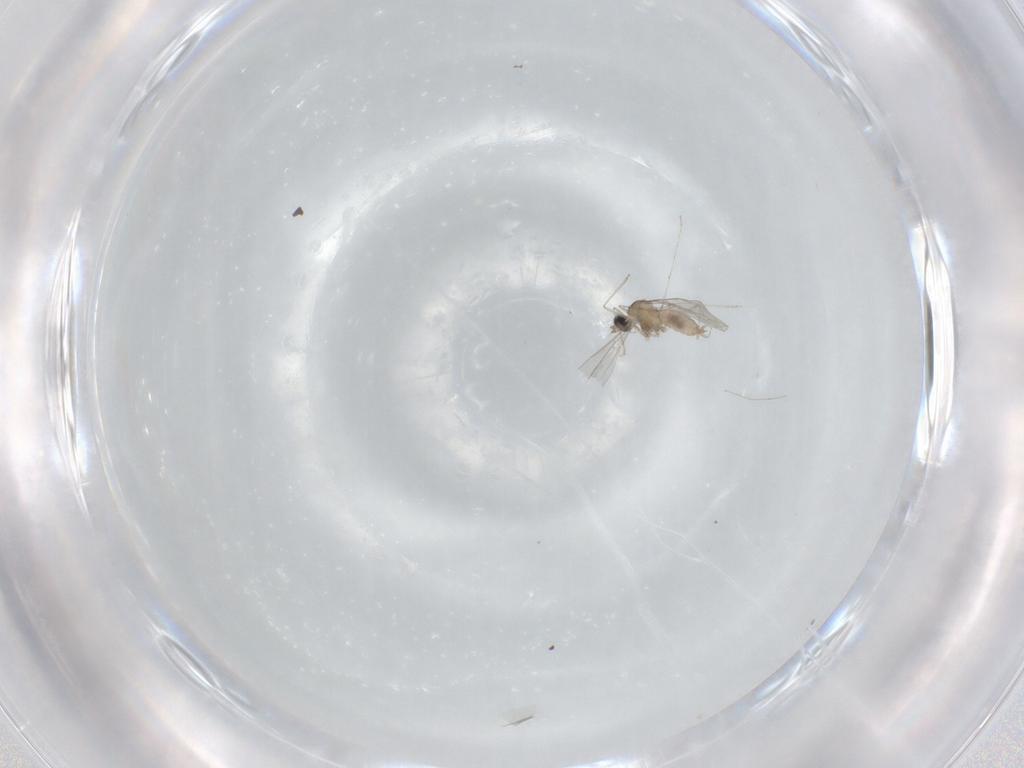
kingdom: Animalia
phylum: Arthropoda
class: Insecta
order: Diptera
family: Cecidomyiidae
